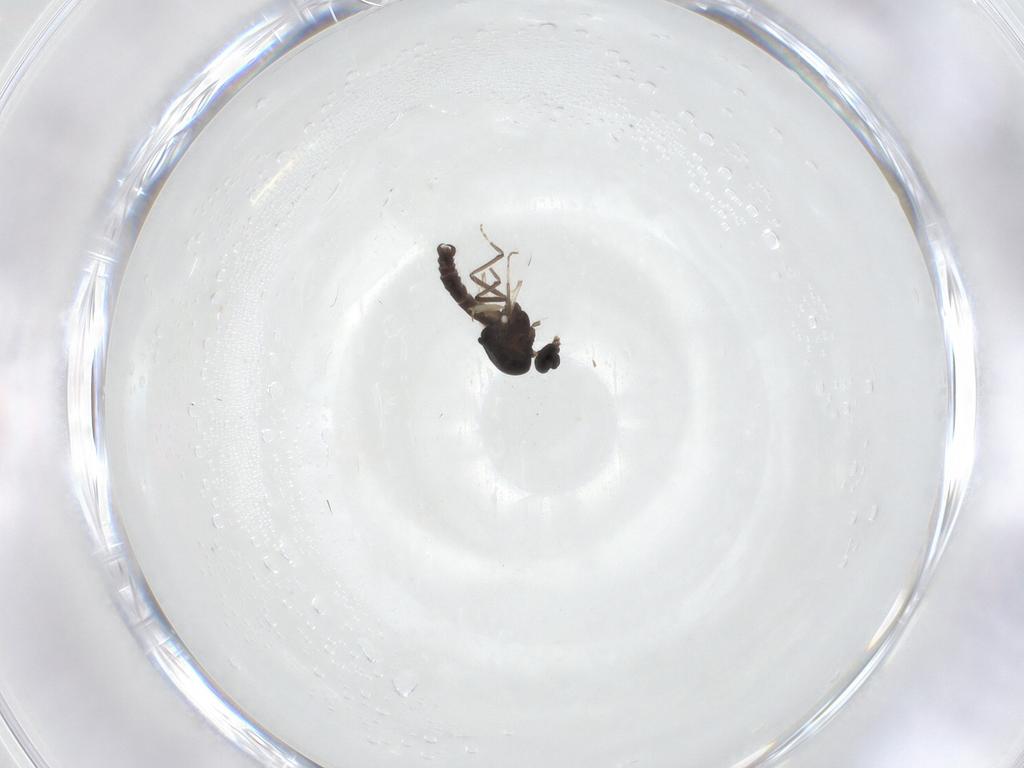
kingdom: Animalia
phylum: Arthropoda
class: Insecta
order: Diptera
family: Ceratopogonidae
